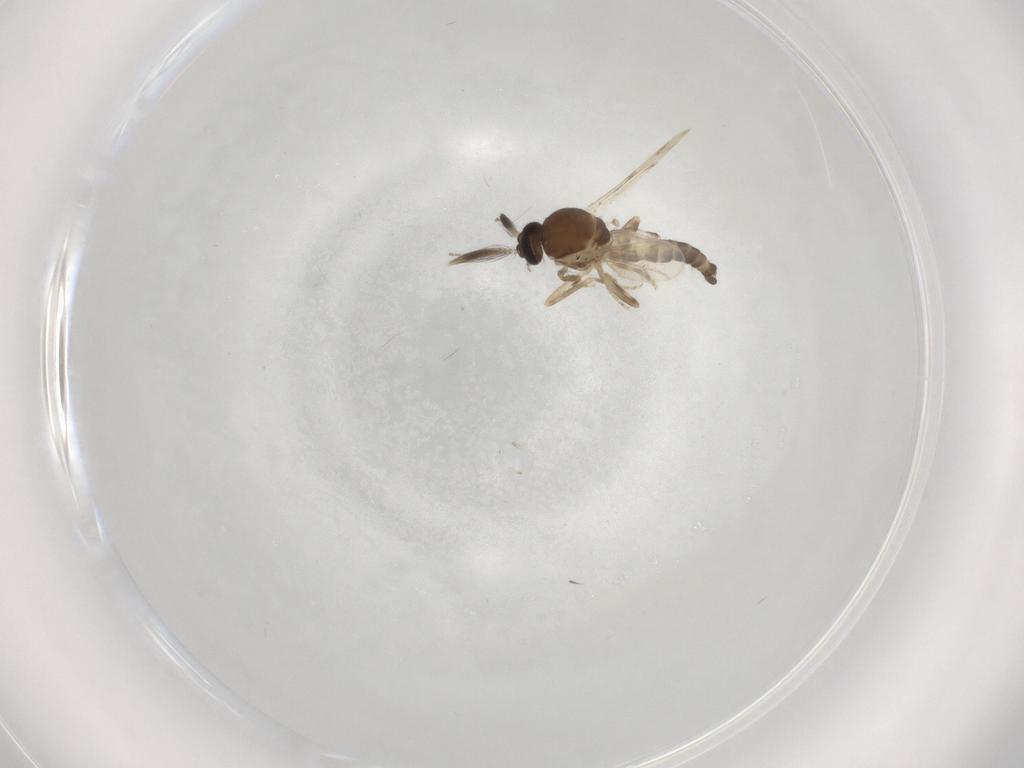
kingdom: Animalia
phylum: Arthropoda
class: Insecta
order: Diptera
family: Ceratopogonidae
